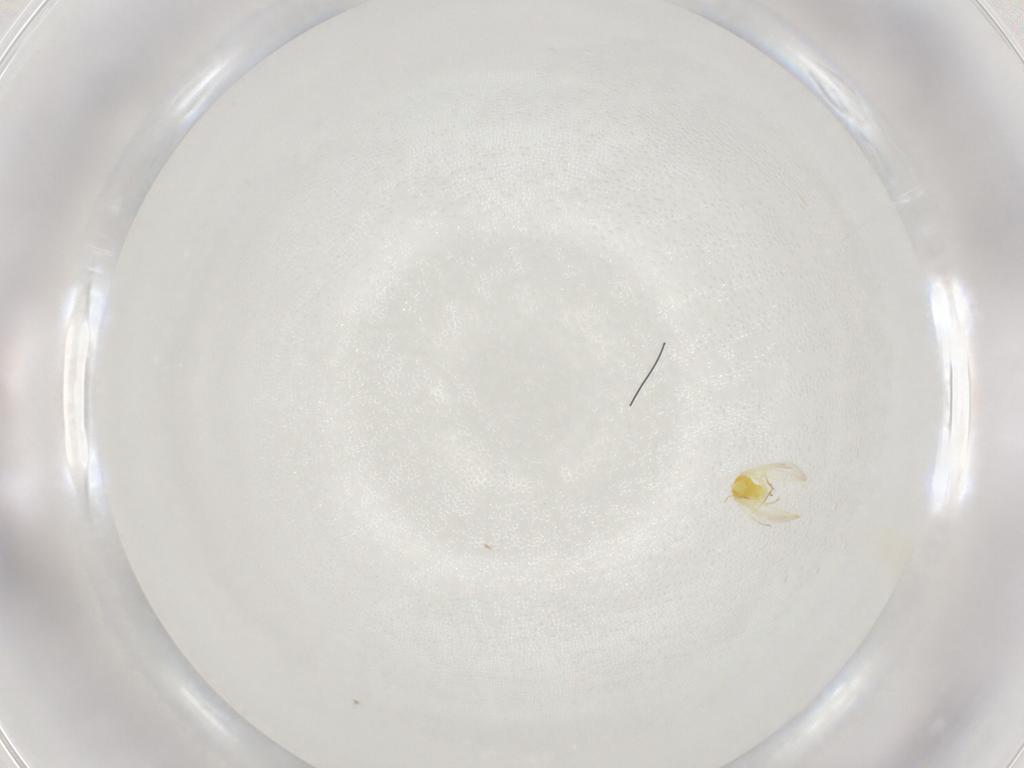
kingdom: Animalia
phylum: Arthropoda
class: Insecta
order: Hemiptera
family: Aleyrodidae
